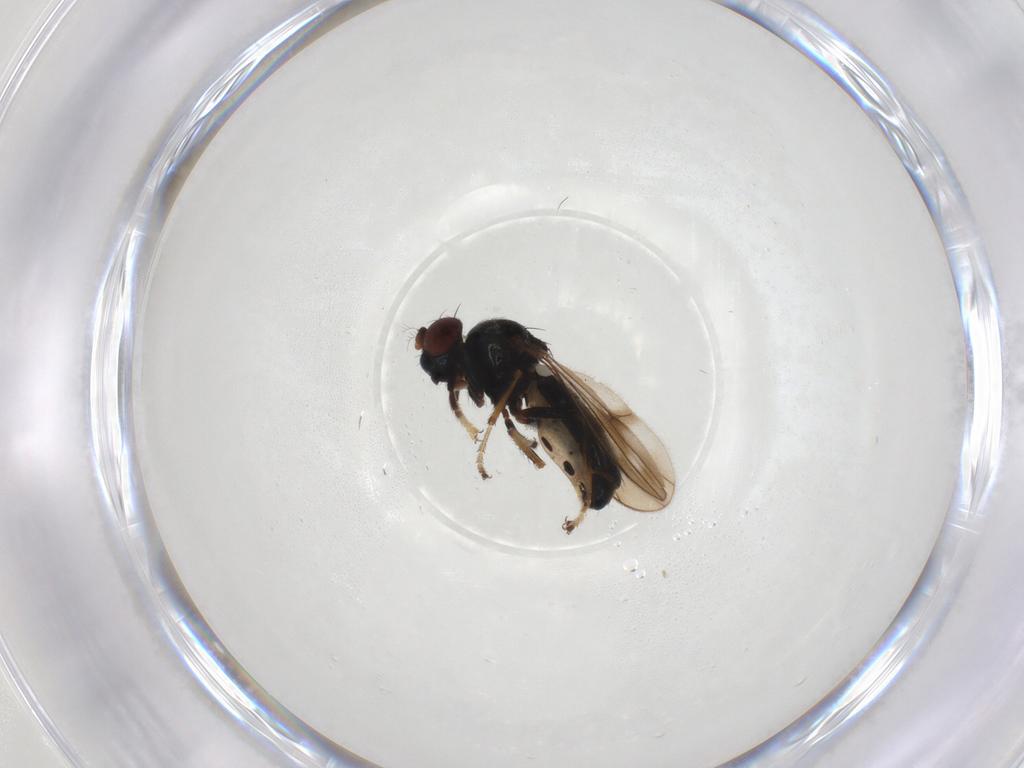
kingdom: Animalia
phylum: Arthropoda
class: Insecta
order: Diptera
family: Ephydridae
